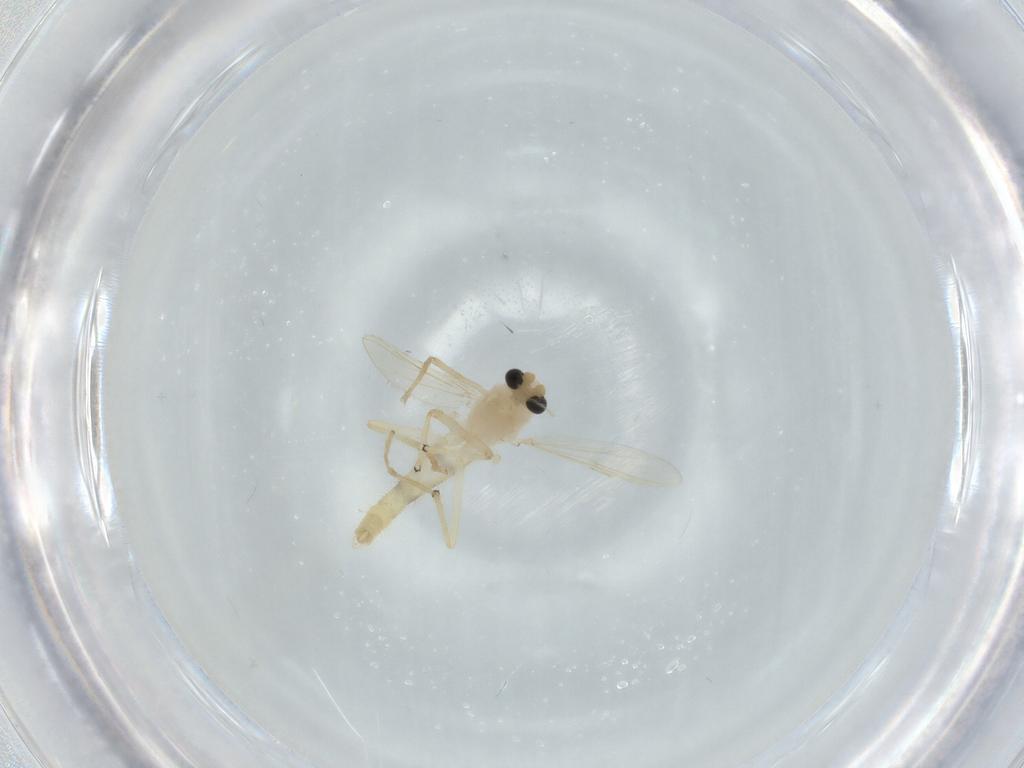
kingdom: Animalia
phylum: Arthropoda
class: Insecta
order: Diptera
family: Chironomidae
